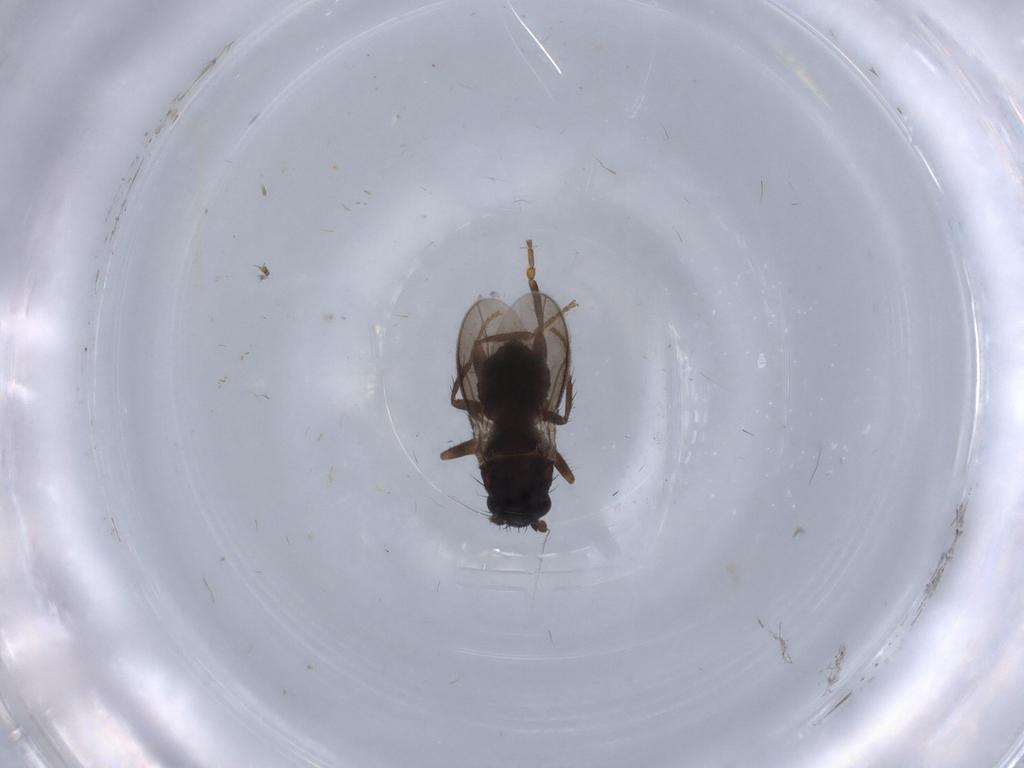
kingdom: Animalia
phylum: Arthropoda
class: Insecta
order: Diptera
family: Sphaeroceridae
